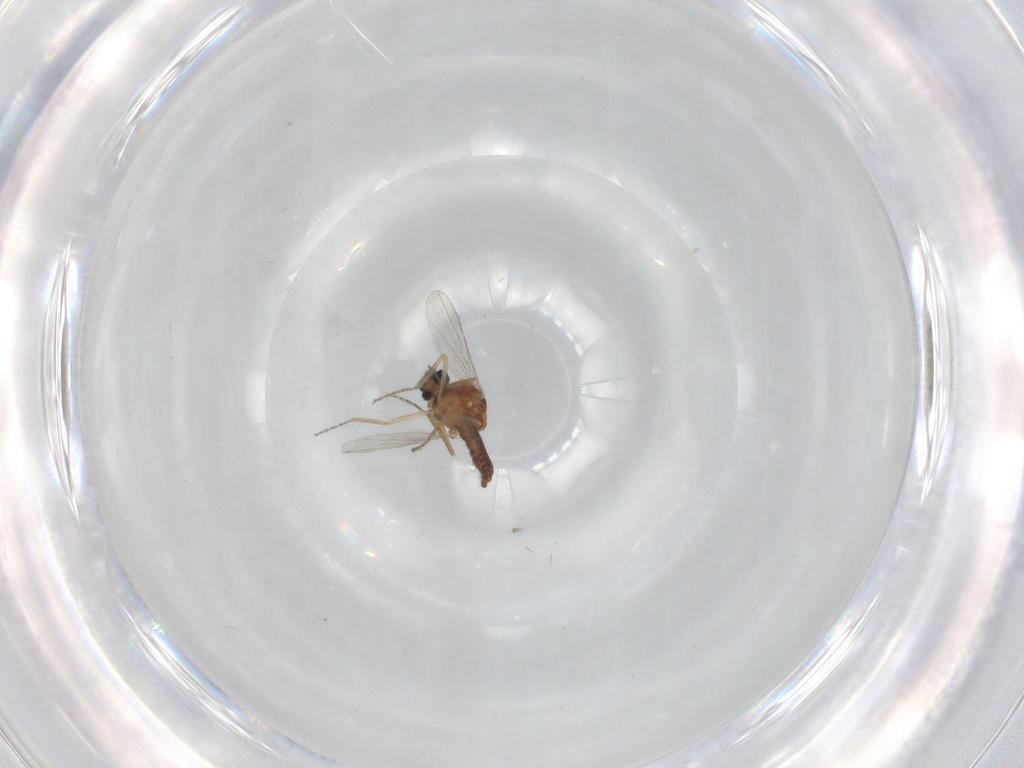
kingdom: Animalia
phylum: Arthropoda
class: Insecta
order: Diptera
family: Ceratopogonidae
